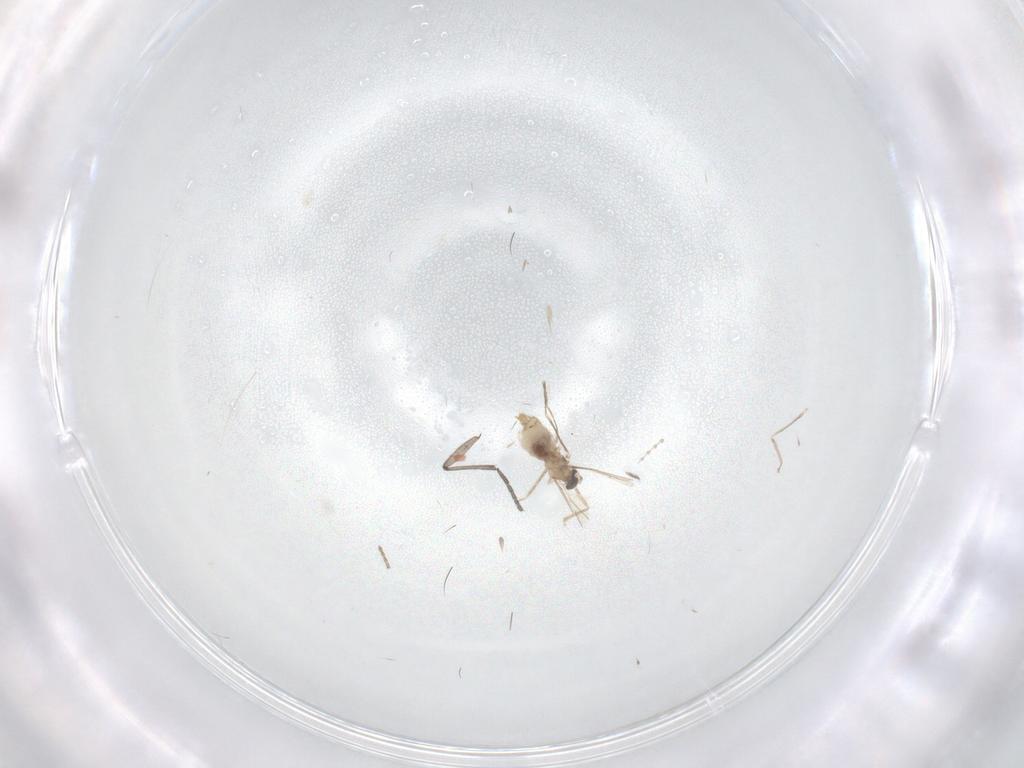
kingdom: Animalia
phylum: Arthropoda
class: Insecta
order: Diptera
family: Sciaridae
